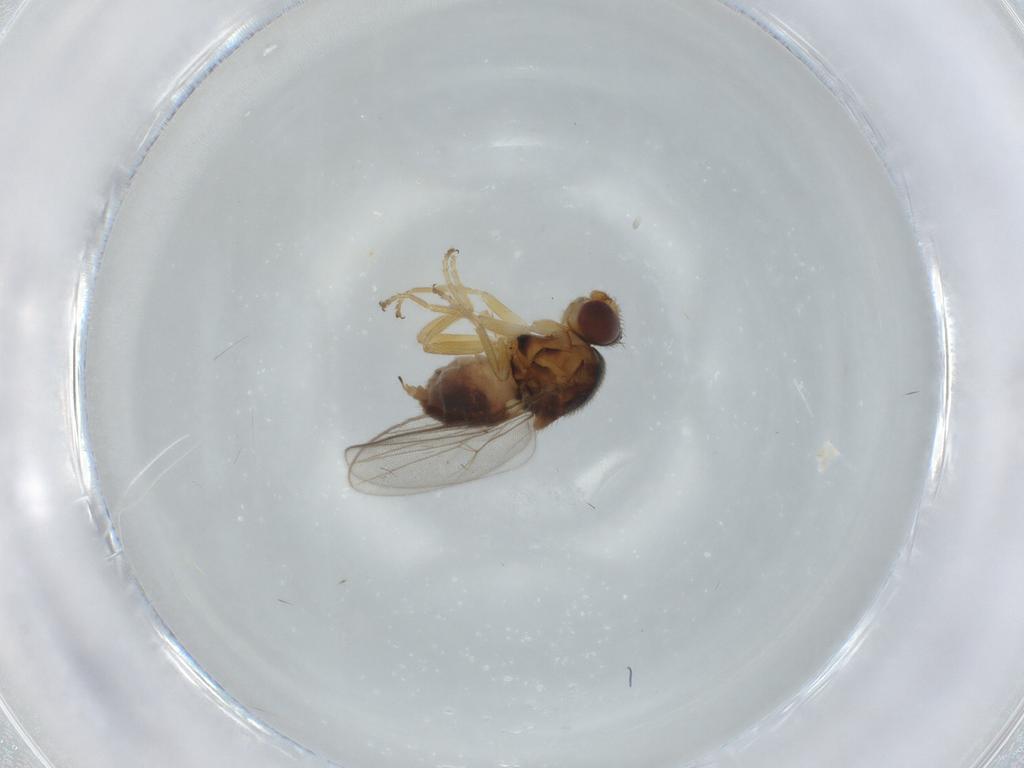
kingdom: Animalia
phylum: Arthropoda
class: Insecta
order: Diptera
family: Chloropidae
